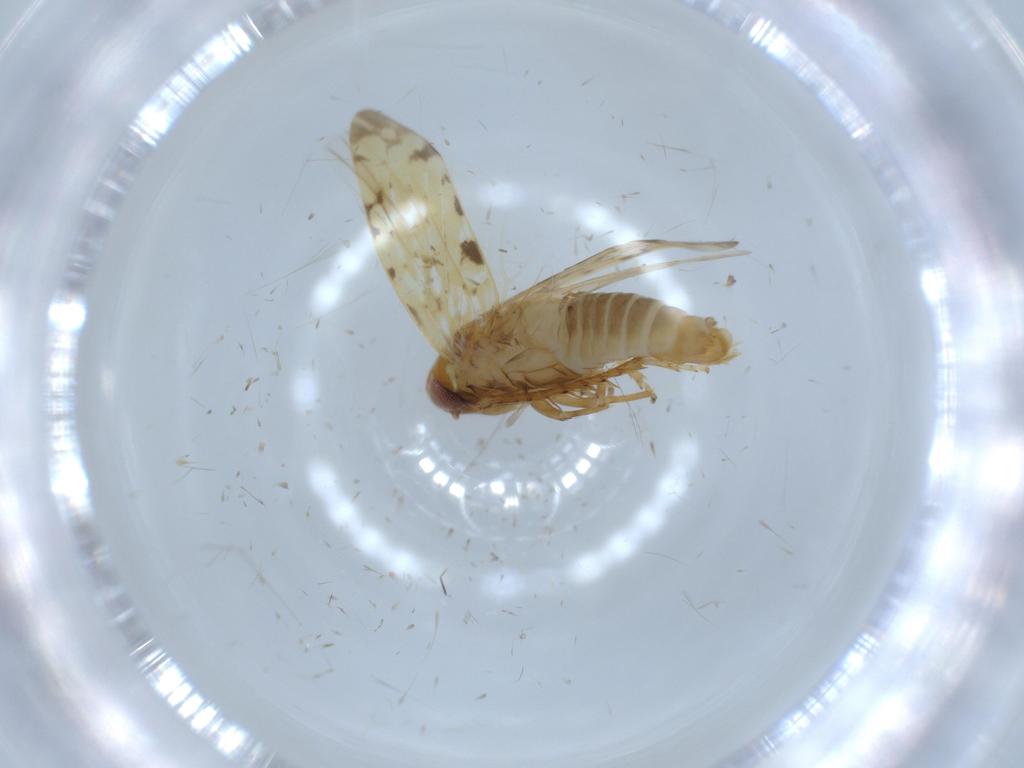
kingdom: Animalia
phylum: Arthropoda
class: Insecta
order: Hemiptera
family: Cicadellidae
